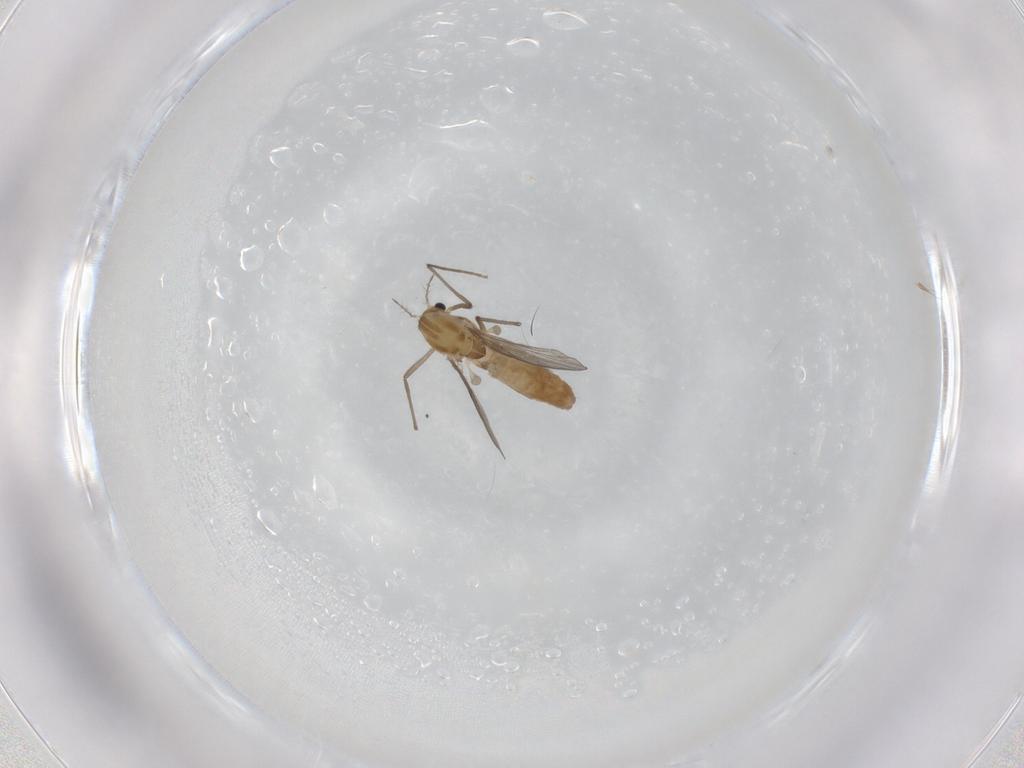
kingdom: Animalia
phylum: Arthropoda
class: Insecta
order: Diptera
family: Chironomidae
